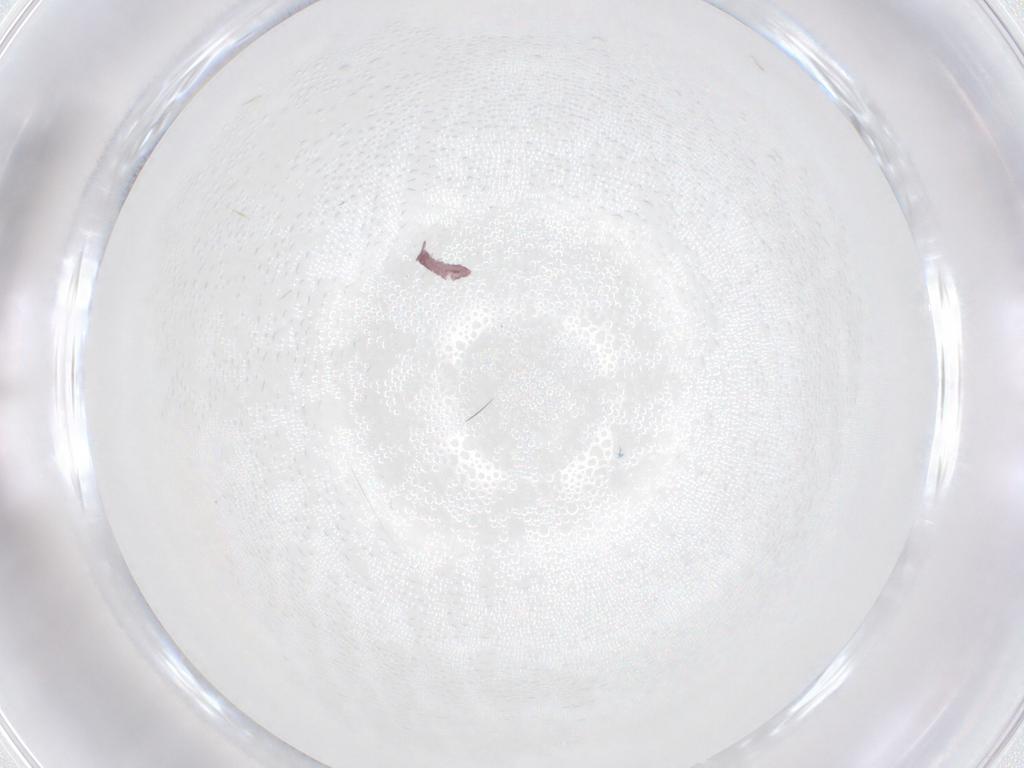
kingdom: Animalia
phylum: Arthropoda
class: Collembola
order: Poduromorpha
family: Hypogastruridae
